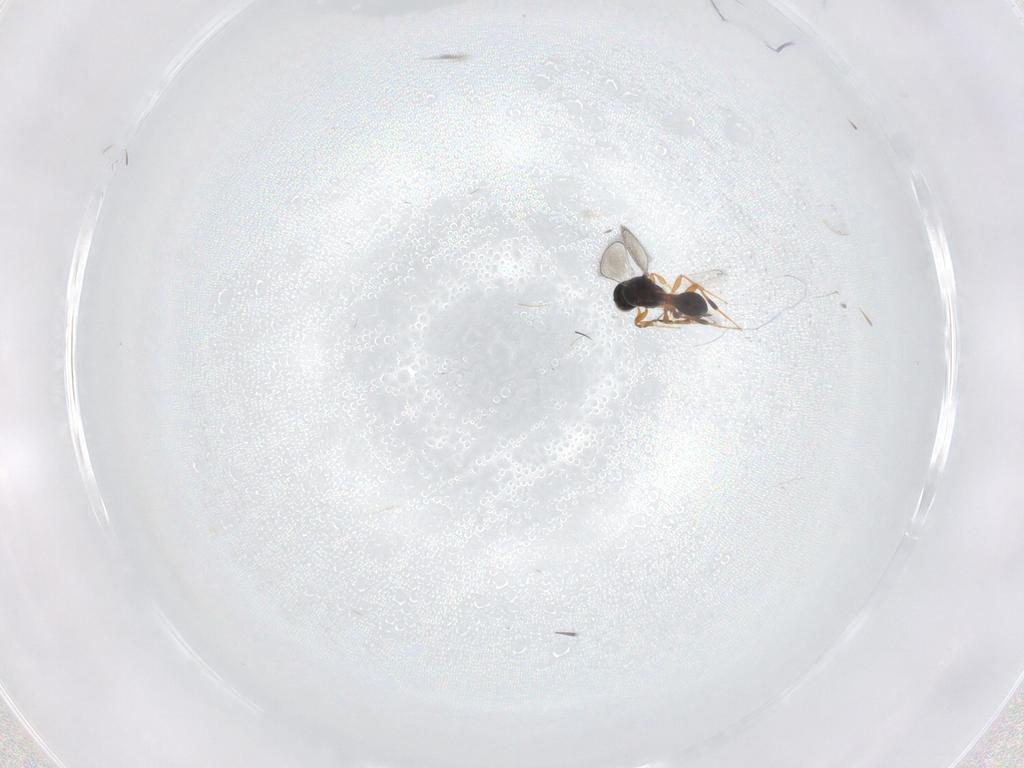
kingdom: Animalia
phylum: Arthropoda
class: Insecta
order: Hymenoptera
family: Platygastridae
